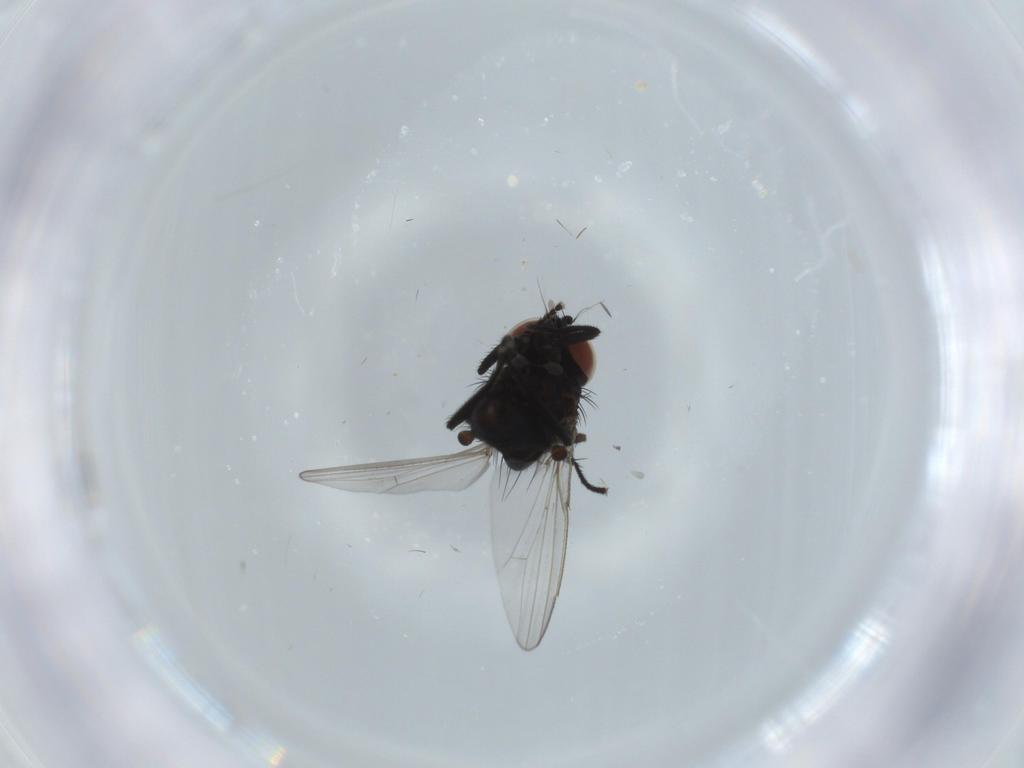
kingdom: Animalia
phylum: Arthropoda
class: Insecta
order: Diptera
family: Milichiidae
